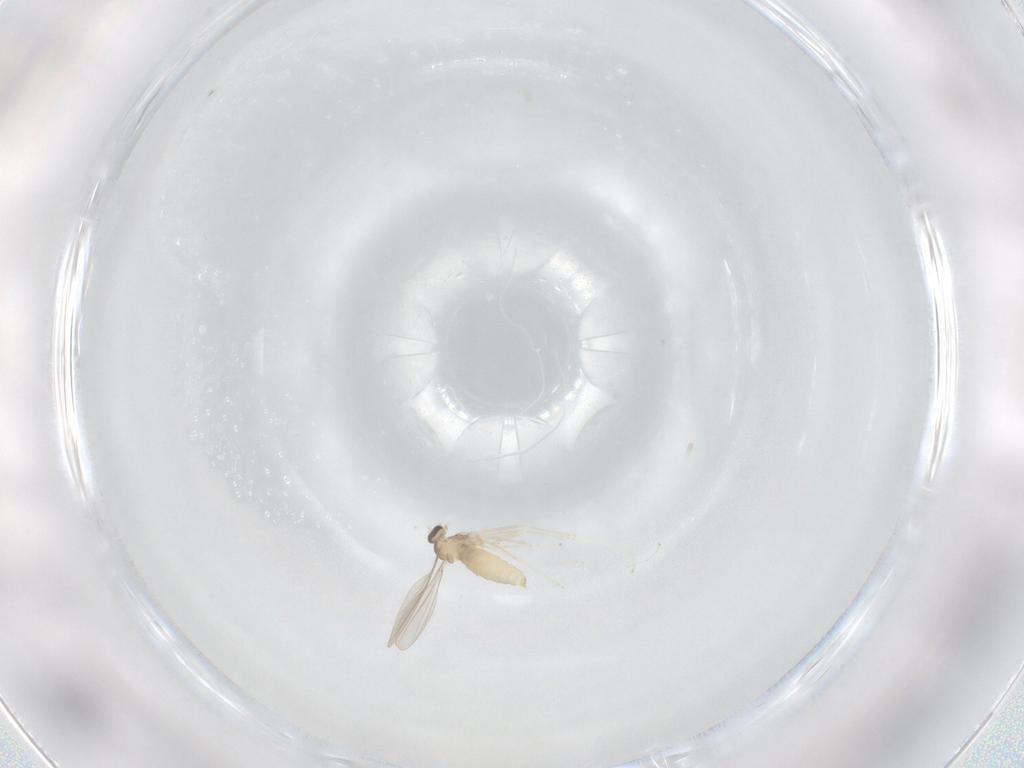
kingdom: Animalia
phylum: Arthropoda
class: Insecta
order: Diptera
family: Cecidomyiidae
